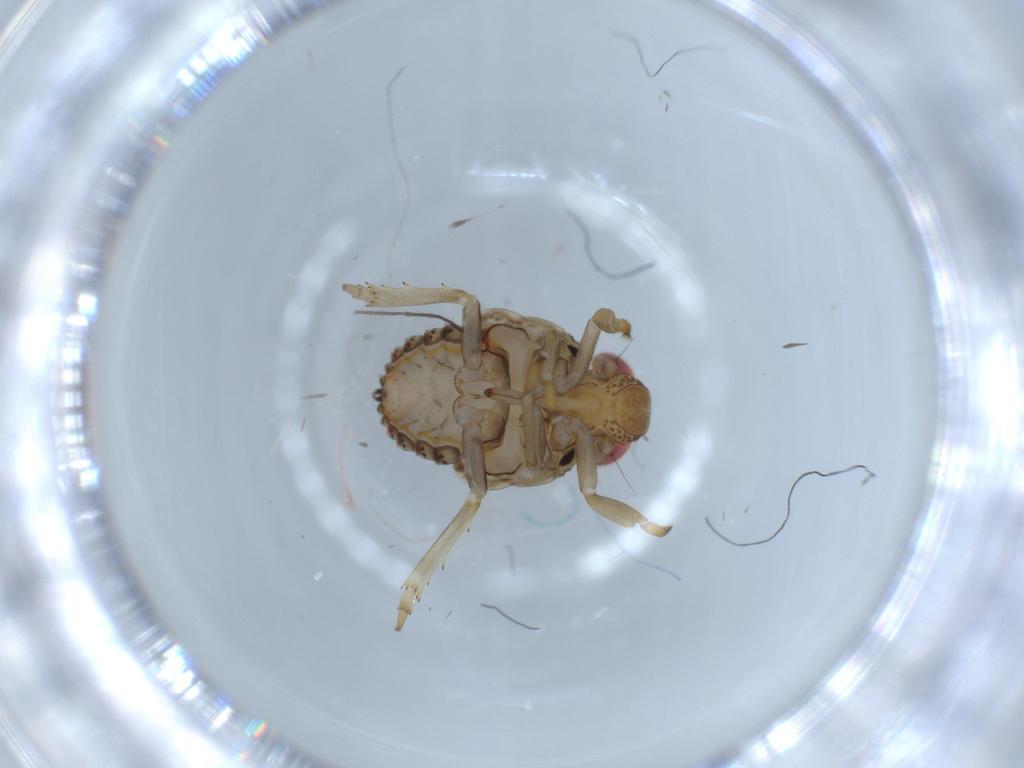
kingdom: Animalia
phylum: Arthropoda
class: Insecta
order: Hemiptera
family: Issidae
